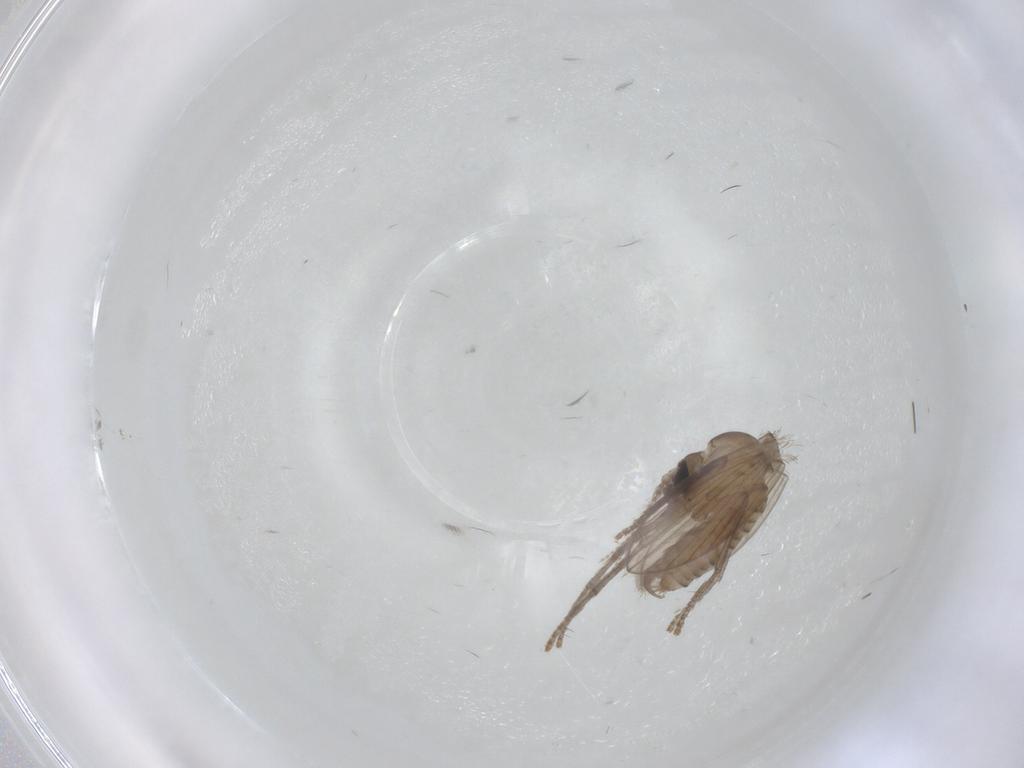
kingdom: Animalia
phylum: Arthropoda
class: Insecta
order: Diptera
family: Psychodidae
